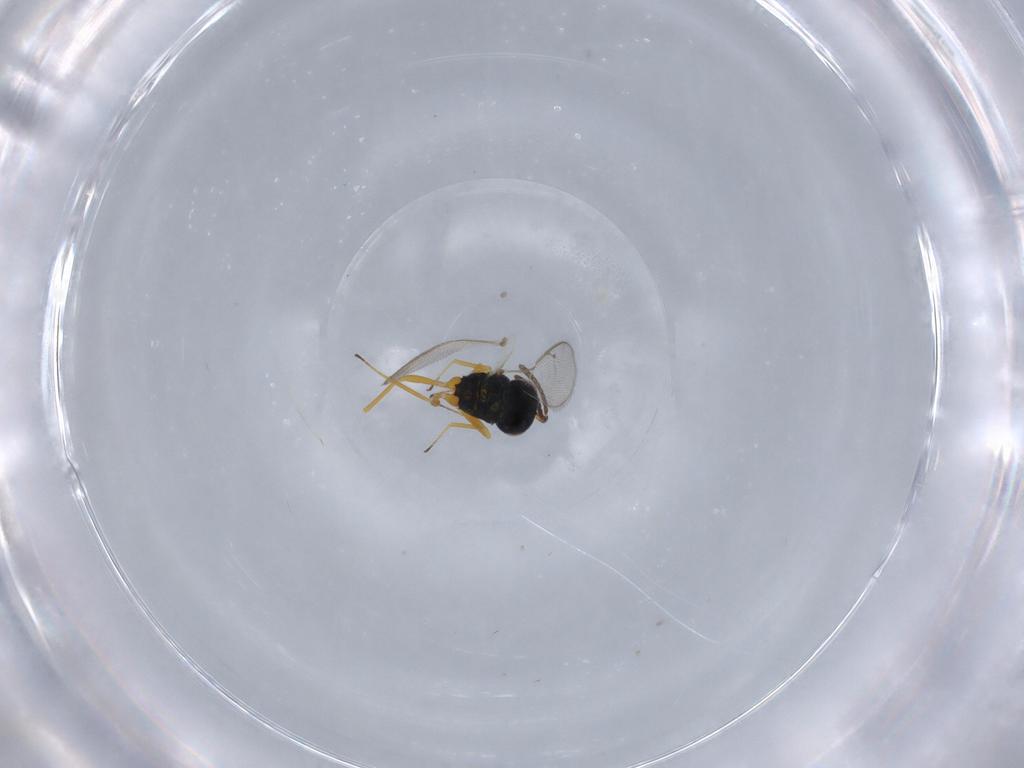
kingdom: Animalia
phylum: Arthropoda
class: Insecta
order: Hymenoptera
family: Pteromalidae
